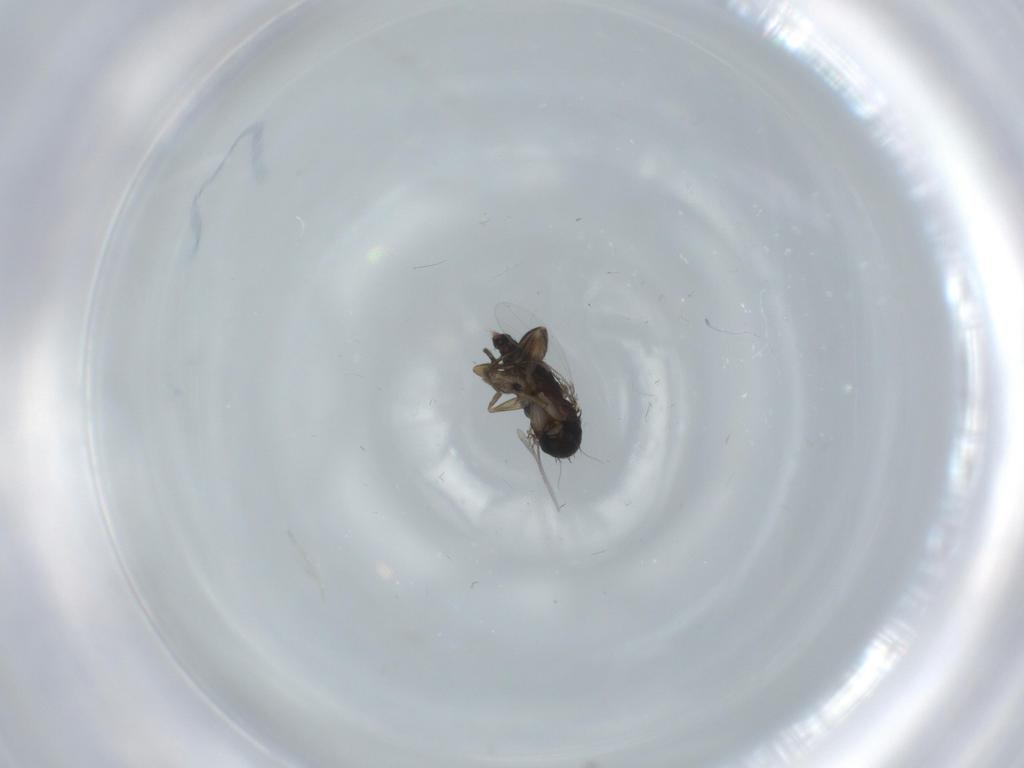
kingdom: Animalia
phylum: Arthropoda
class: Insecta
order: Diptera
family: Phoridae
